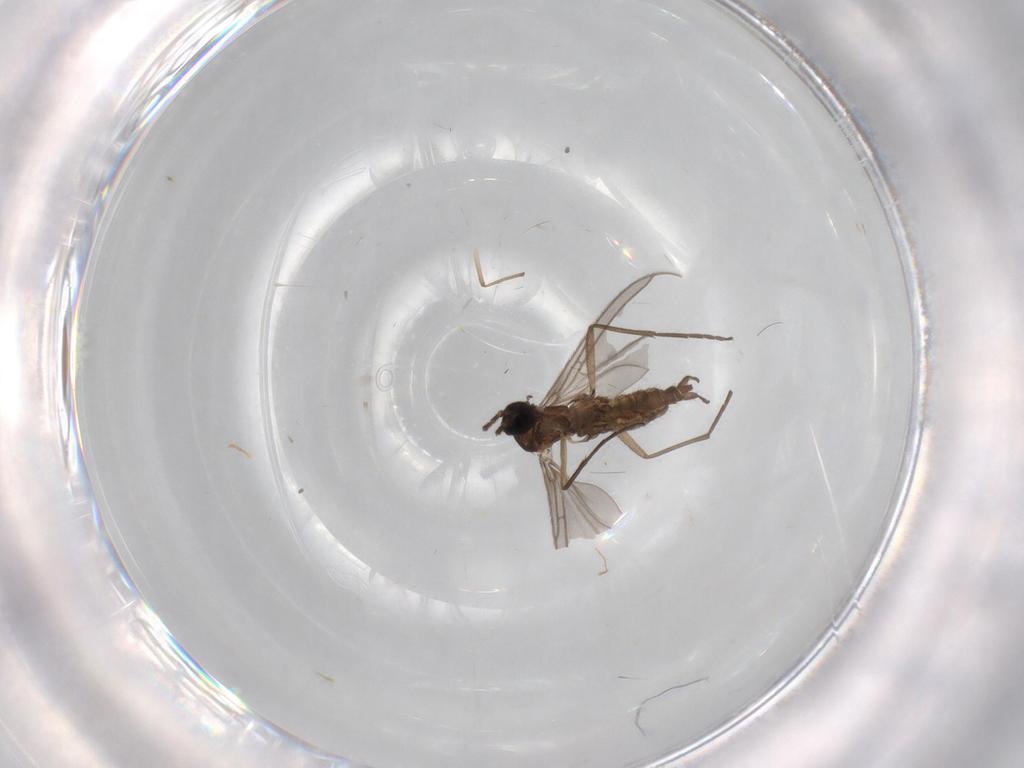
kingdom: Animalia
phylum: Arthropoda
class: Insecta
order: Diptera
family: Sciaridae
